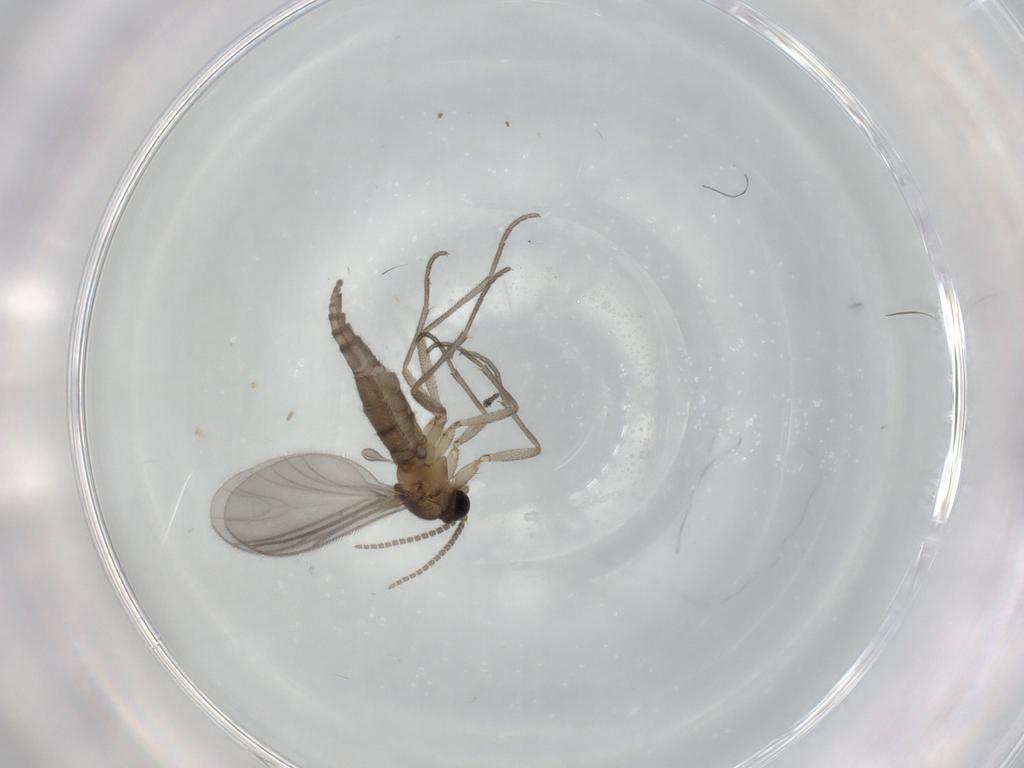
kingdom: Animalia
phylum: Arthropoda
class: Insecta
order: Diptera
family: Sciaridae
